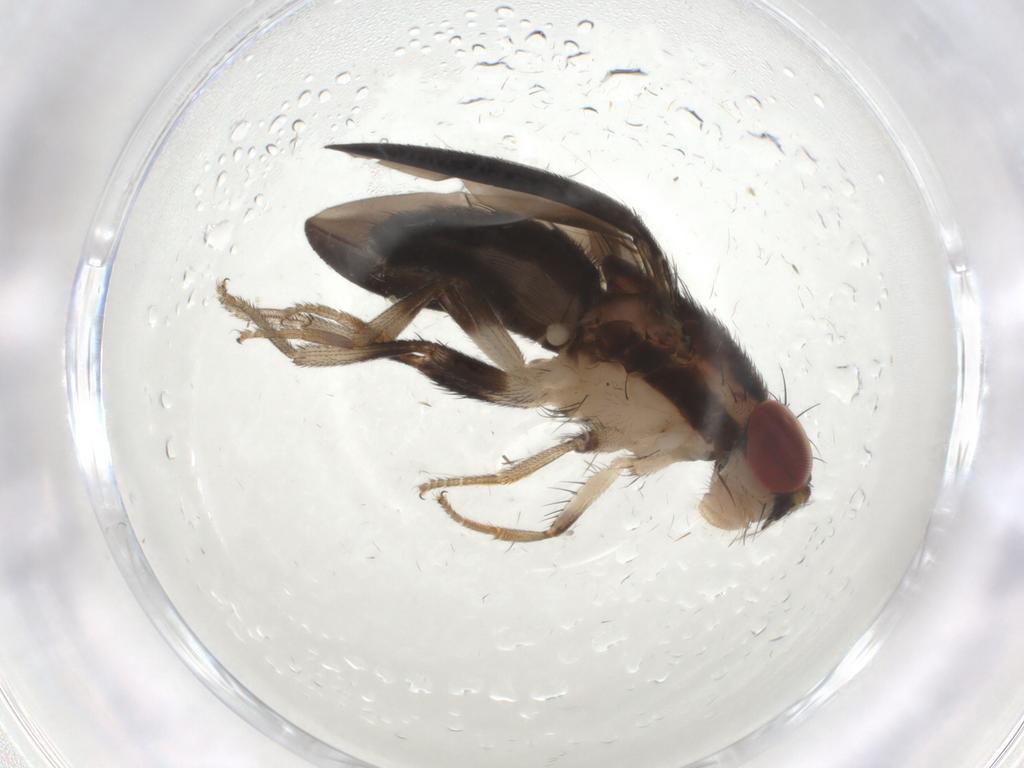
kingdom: Animalia
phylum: Arthropoda
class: Insecta
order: Diptera
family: Drosophilidae
